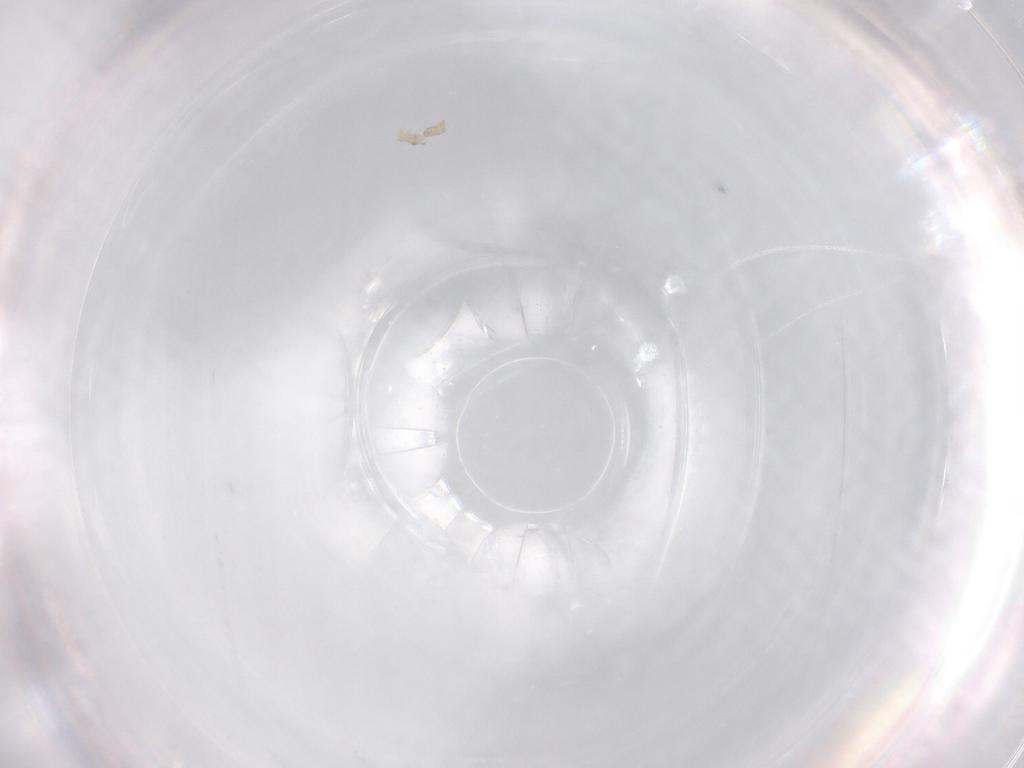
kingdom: Animalia
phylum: Arthropoda
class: Collembola
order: Poduromorpha
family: Hypogastruridae
